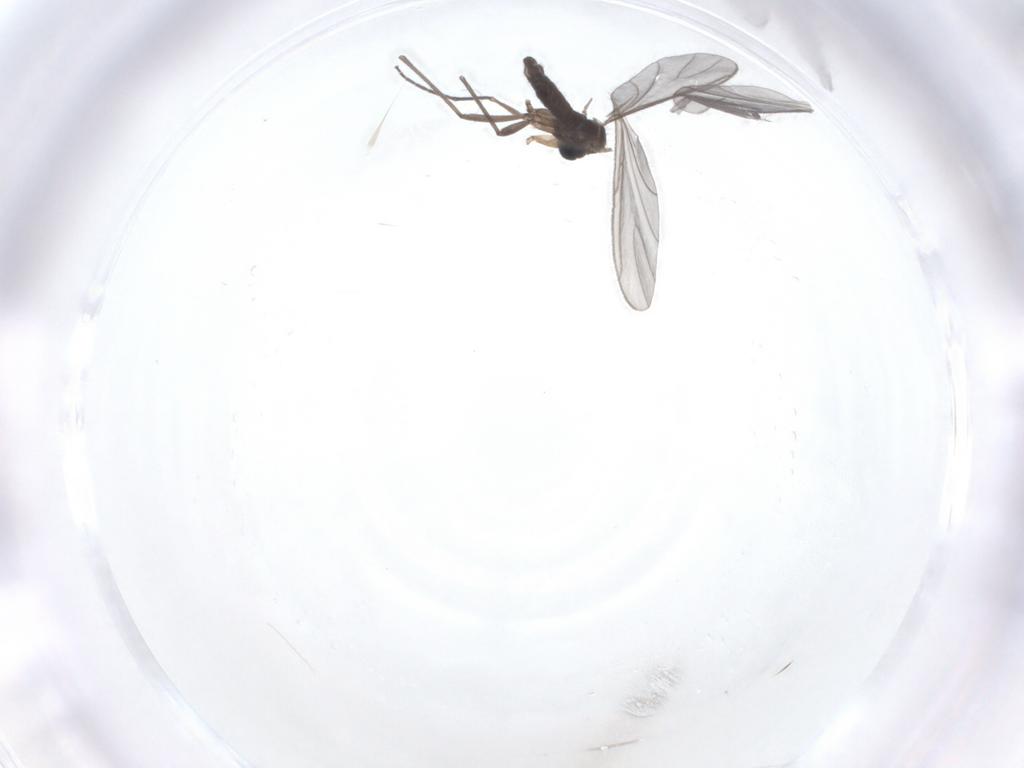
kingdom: Animalia
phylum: Arthropoda
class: Insecta
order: Diptera
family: Sciaridae
